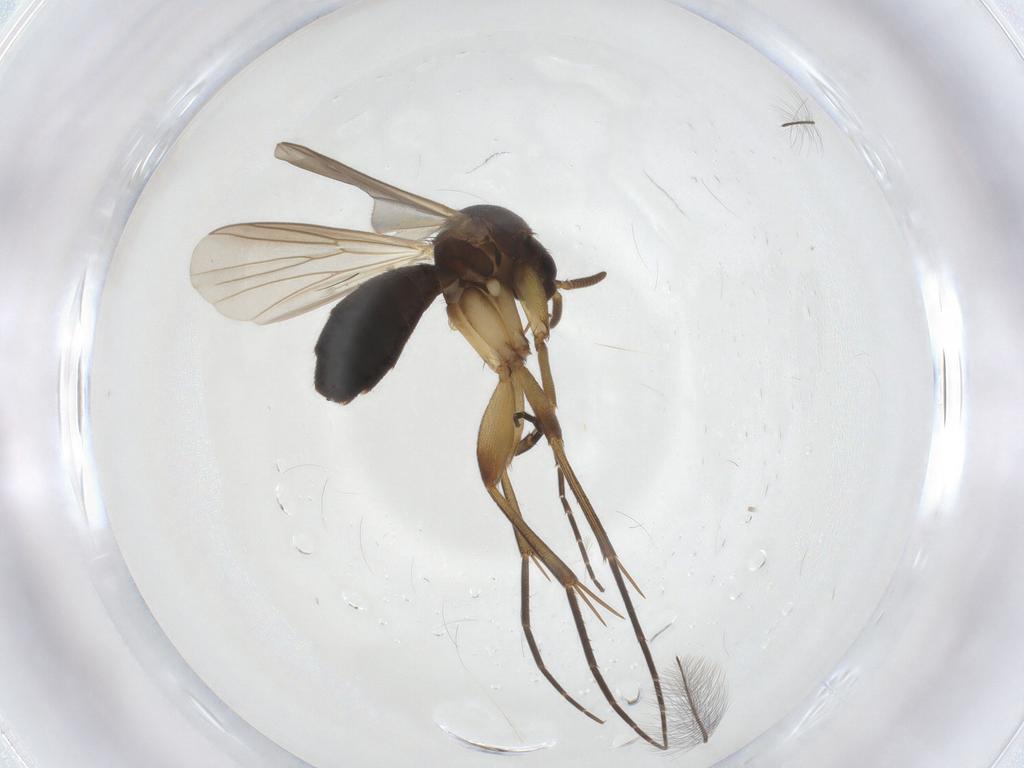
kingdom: Animalia
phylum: Arthropoda
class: Insecta
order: Diptera
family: Mycetophilidae
